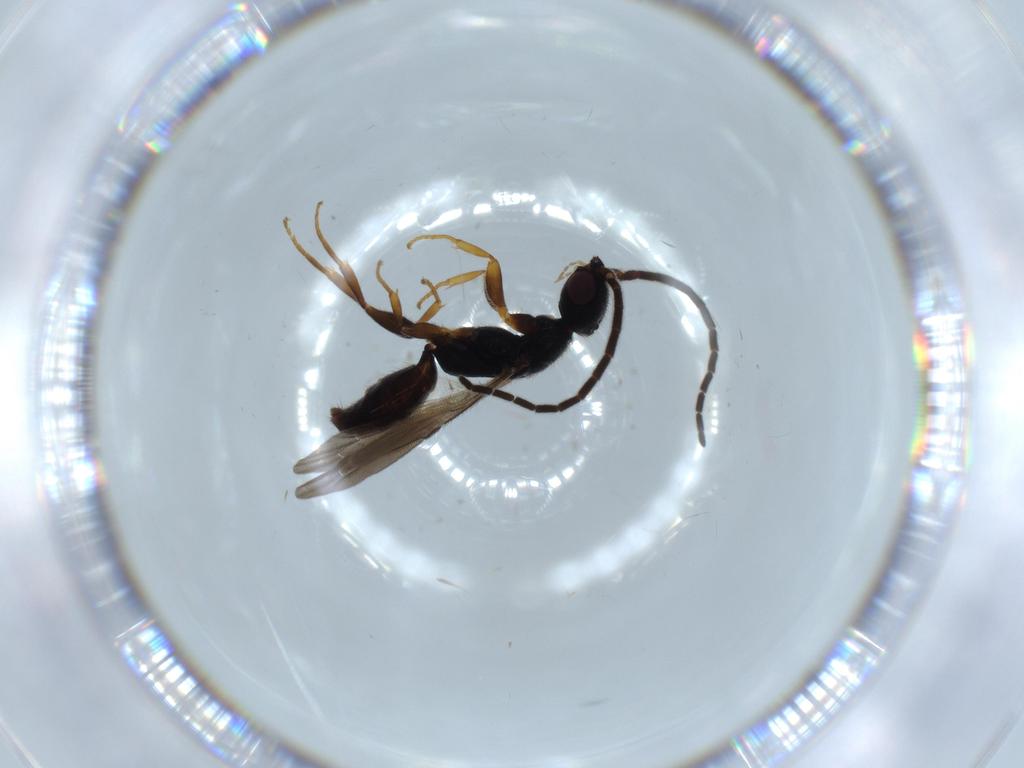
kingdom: Animalia
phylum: Arthropoda
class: Insecta
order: Hymenoptera
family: Bethylidae
